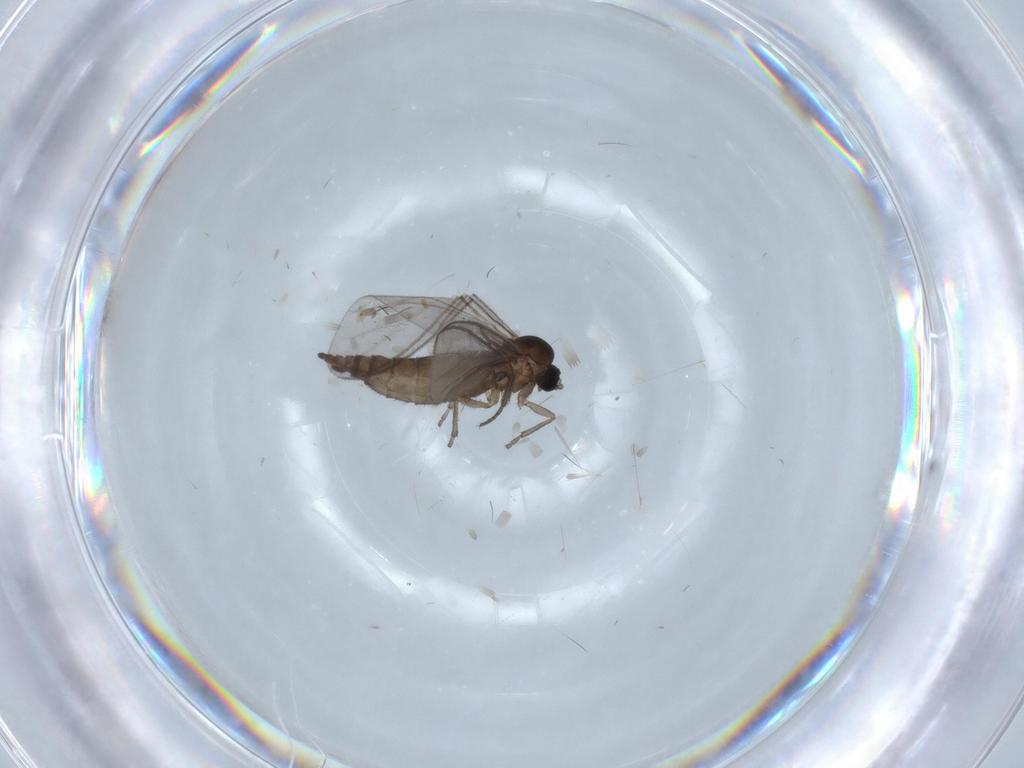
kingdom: Animalia
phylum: Arthropoda
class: Insecta
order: Diptera
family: Sciaridae
